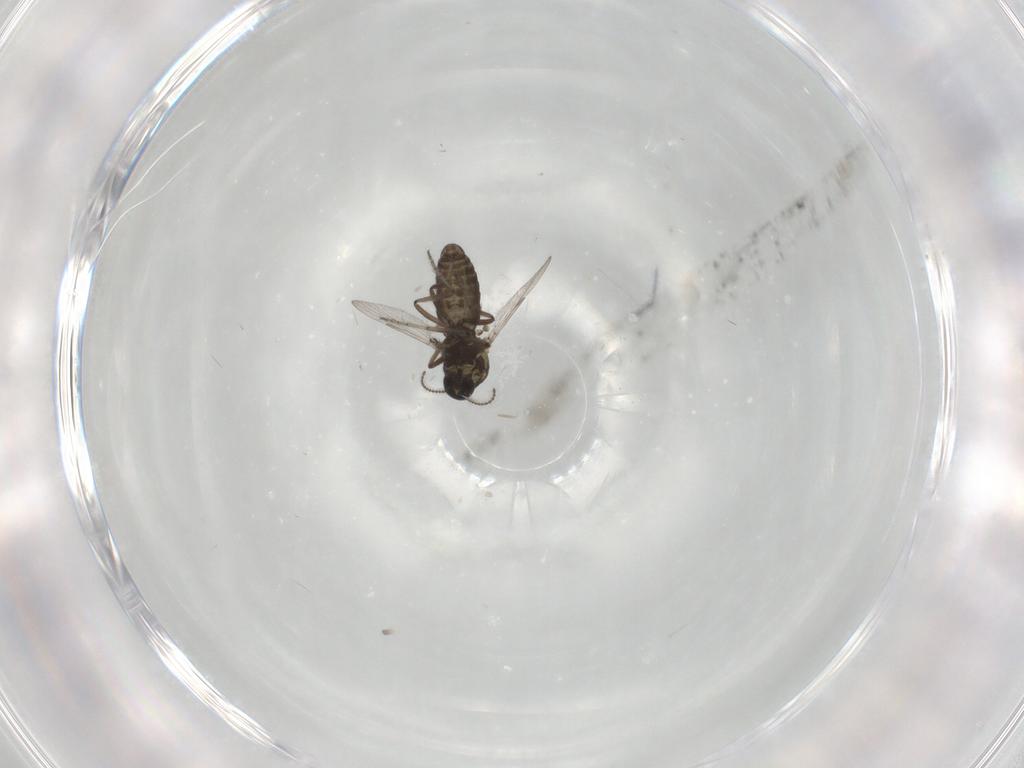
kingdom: Animalia
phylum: Arthropoda
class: Insecta
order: Diptera
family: Ceratopogonidae
